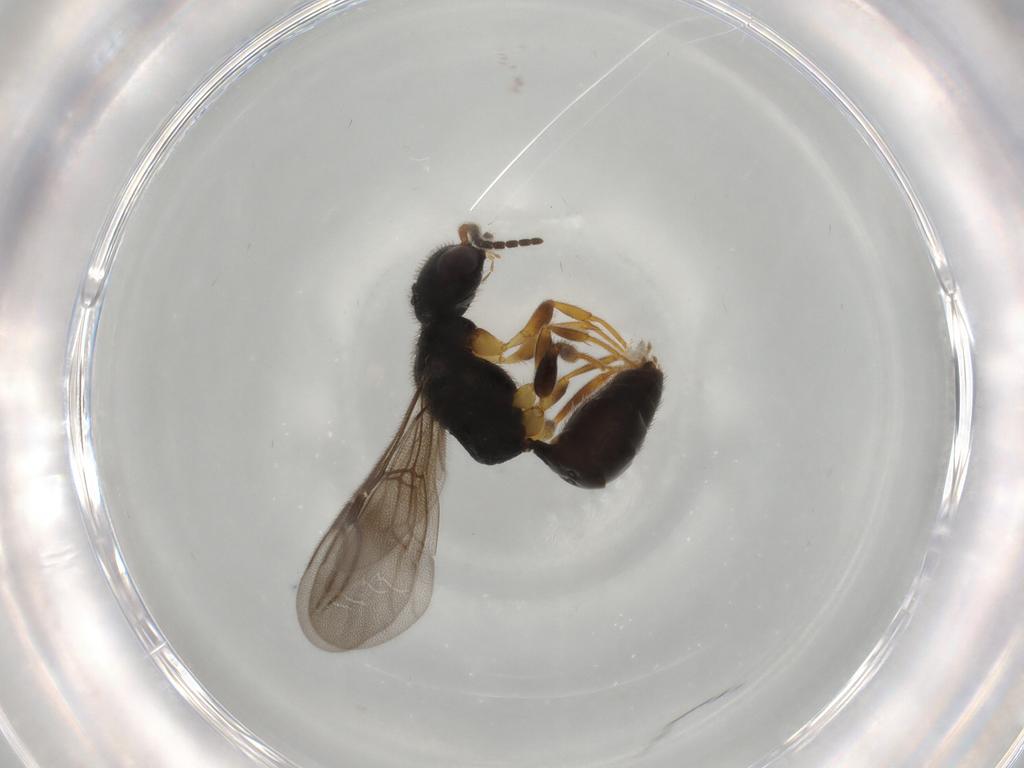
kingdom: Animalia
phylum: Arthropoda
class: Insecta
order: Hymenoptera
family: Bethylidae
